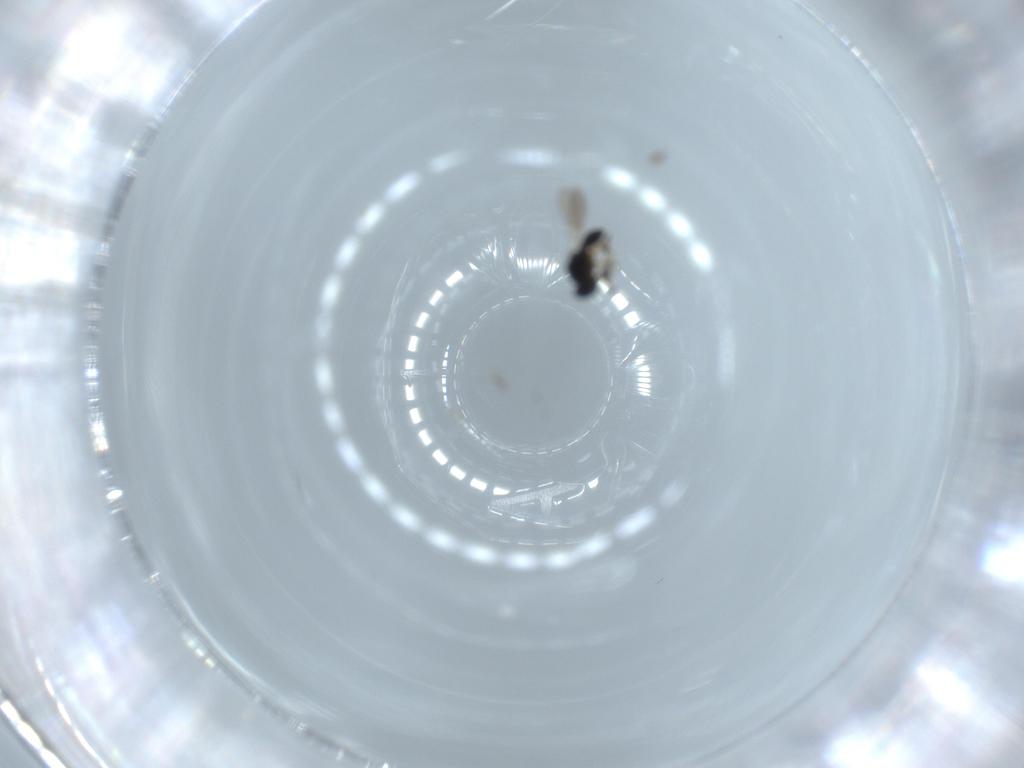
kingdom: Animalia
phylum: Arthropoda
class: Insecta
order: Hymenoptera
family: Platygastridae
